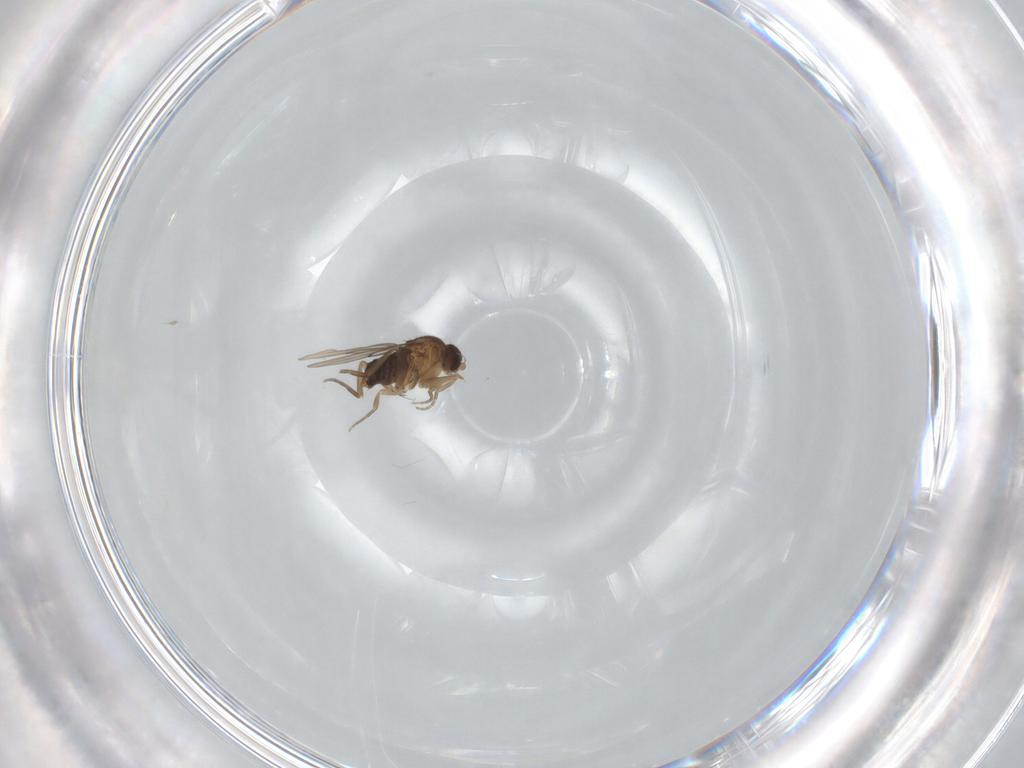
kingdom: Animalia
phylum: Arthropoda
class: Insecta
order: Diptera
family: Phoridae
